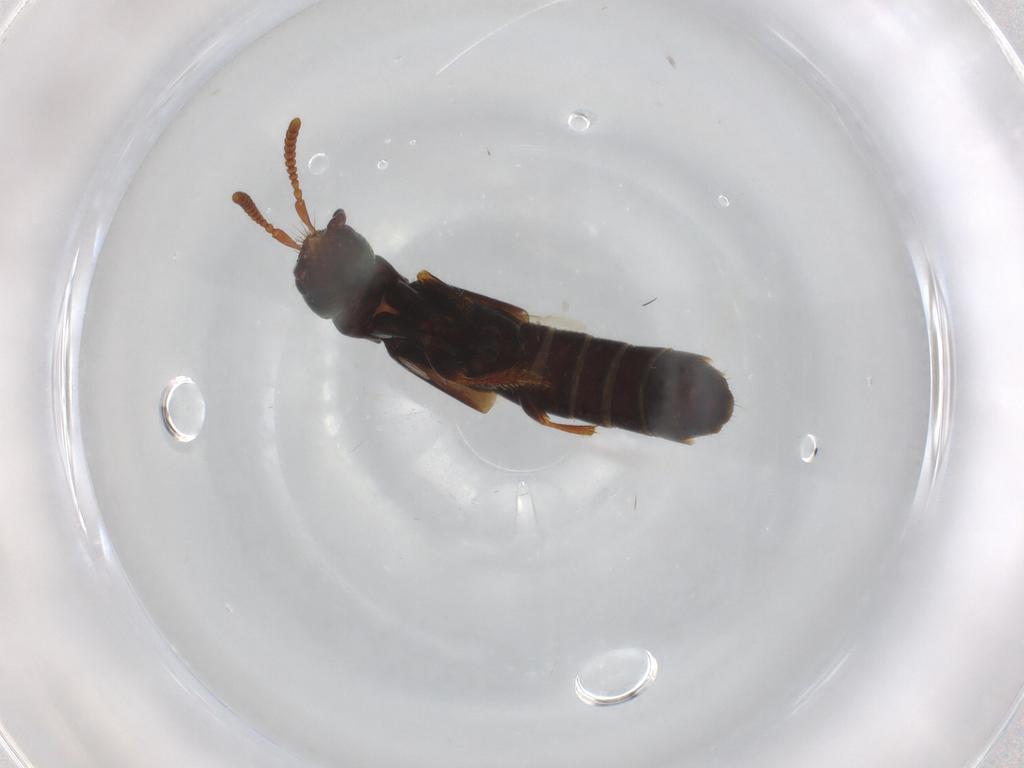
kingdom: Animalia
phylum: Arthropoda
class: Insecta
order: Coleoptera
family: Staphylinidae
